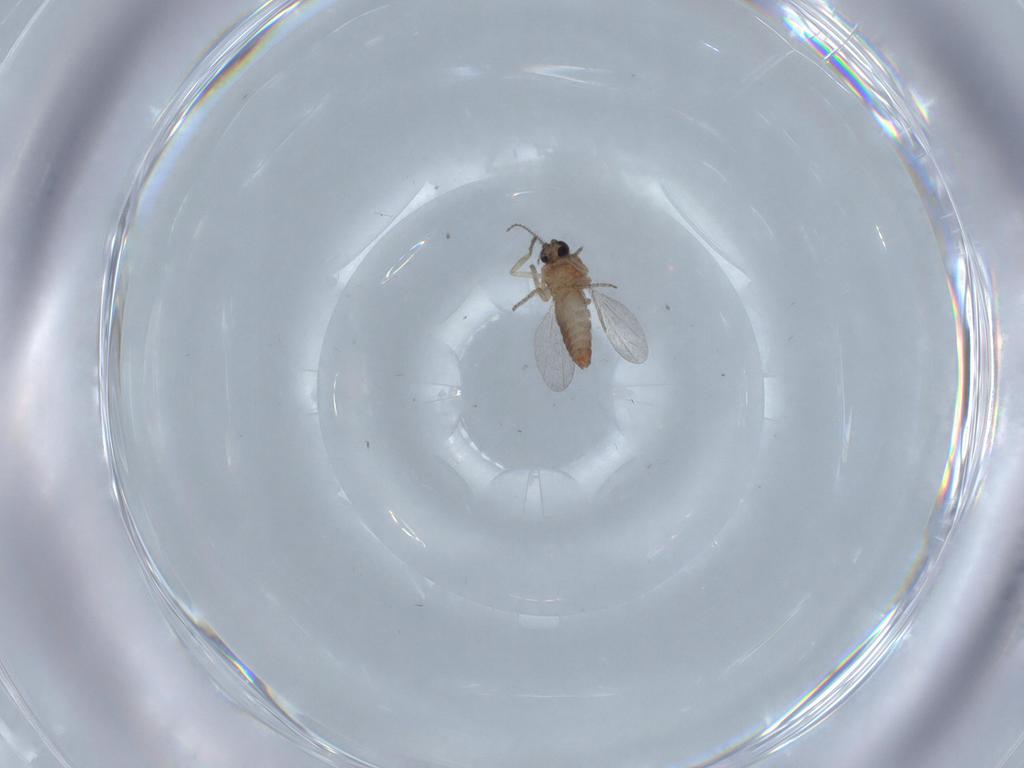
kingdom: Animalia
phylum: Arthropoda
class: Insecta
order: Diptera
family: Ceratopogonidae
